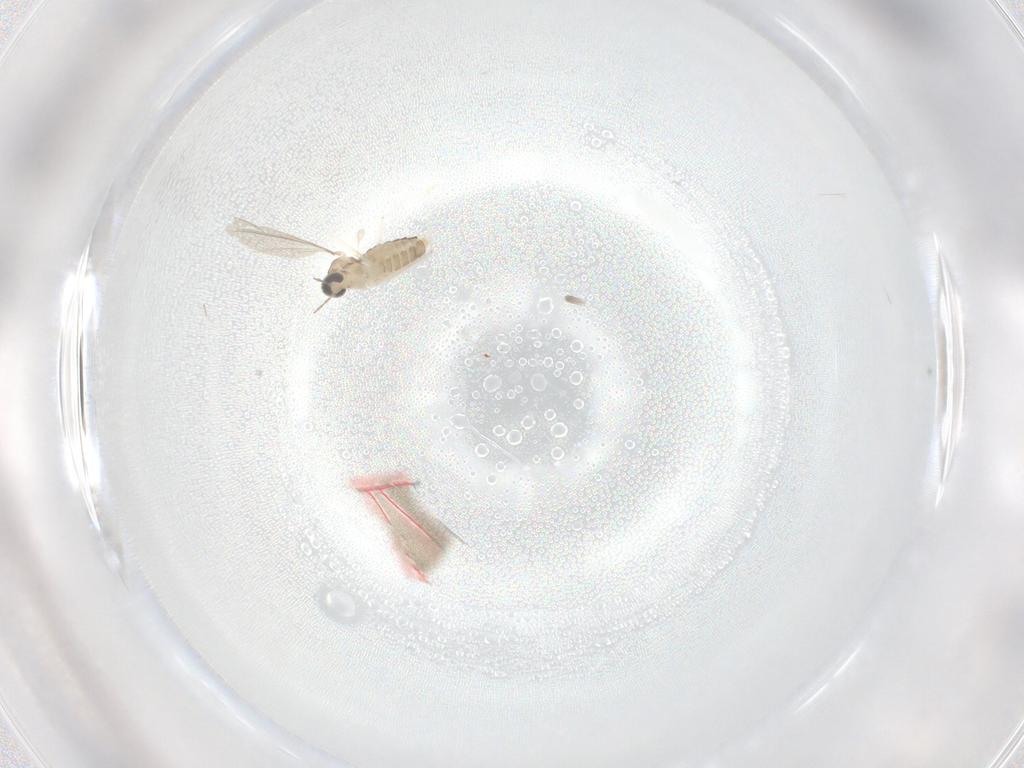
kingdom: Animalia
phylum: Arthropoda
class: Insecta
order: Diptera
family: Cecidomyiidae
